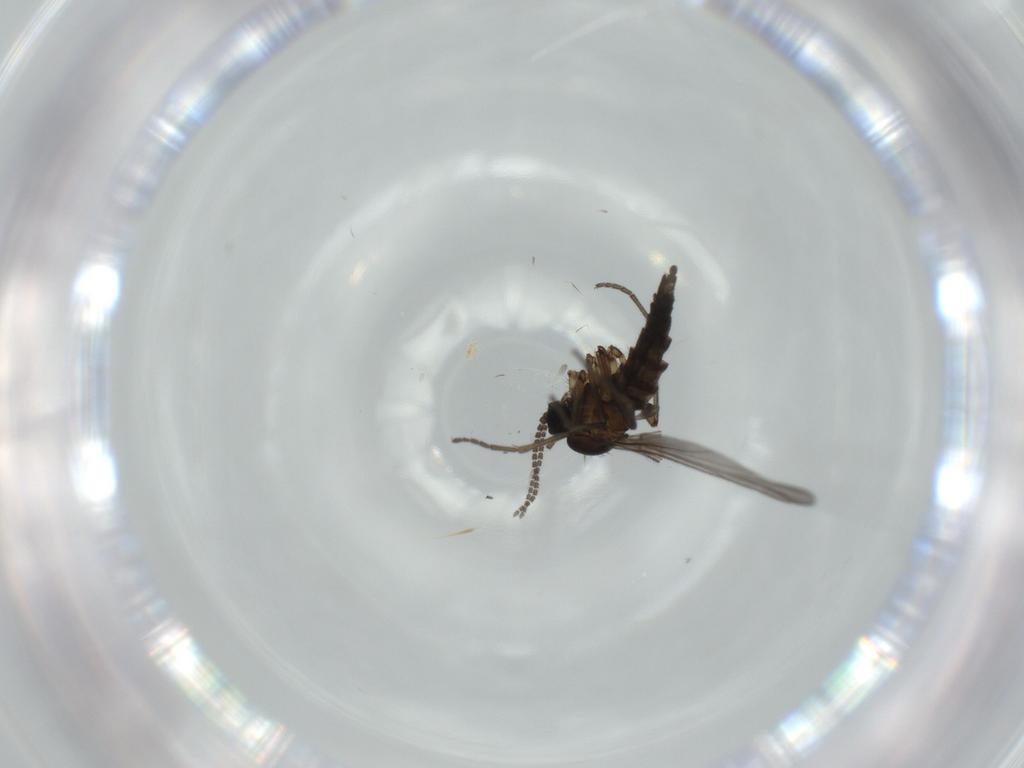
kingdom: Animalia
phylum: Arthropoda
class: Insecta
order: Diptera
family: Sciaridae
